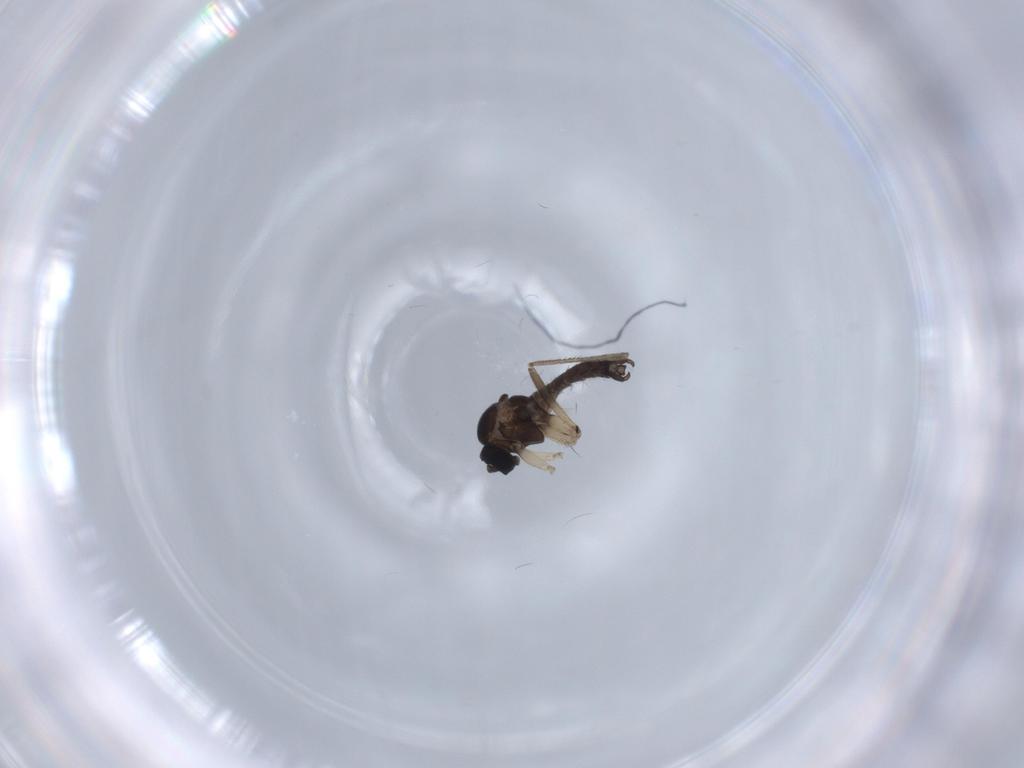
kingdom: Animalia
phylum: Arthropoda
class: Insecta
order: Diptera
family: Sciaridae
